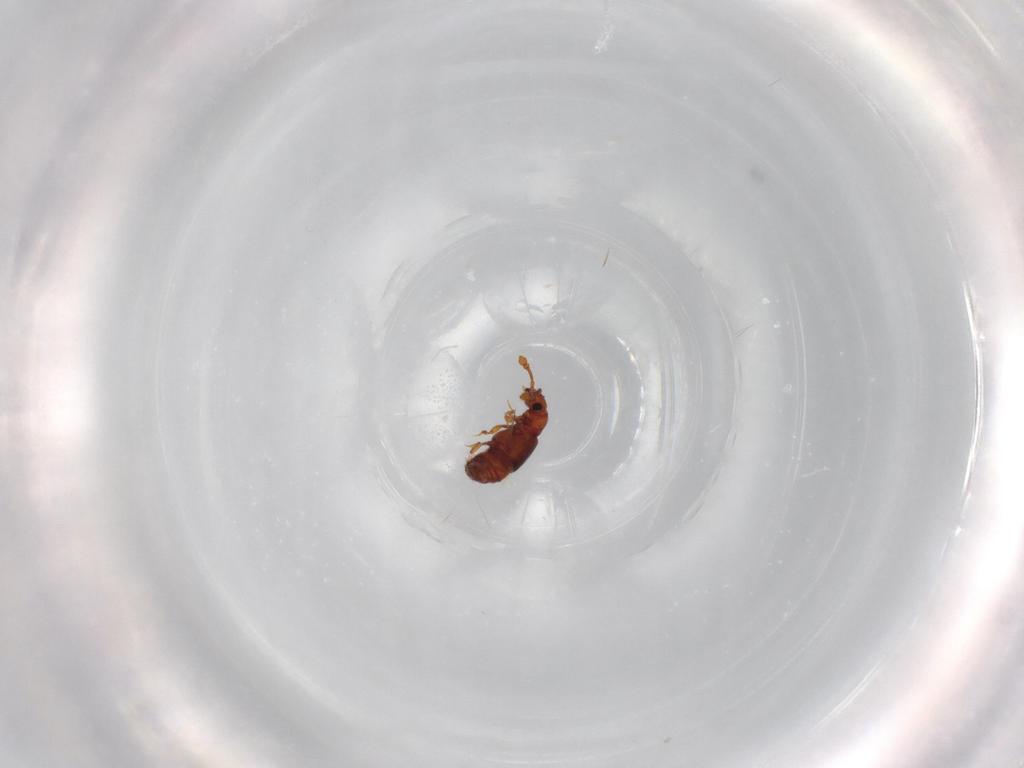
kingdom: Animalia
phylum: Arthropoda
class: Insecta
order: Coleoptera
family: Staphylinidae
